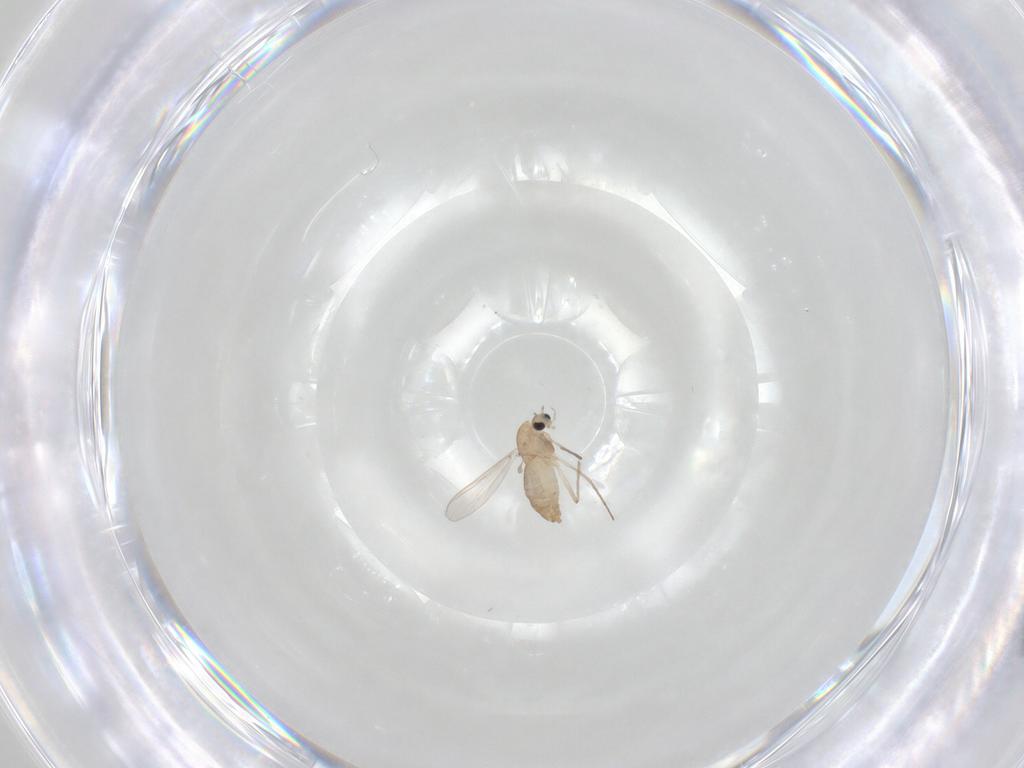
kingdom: Animalia
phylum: Arthropoda
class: Insecta
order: Diptera
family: Chironomidae
